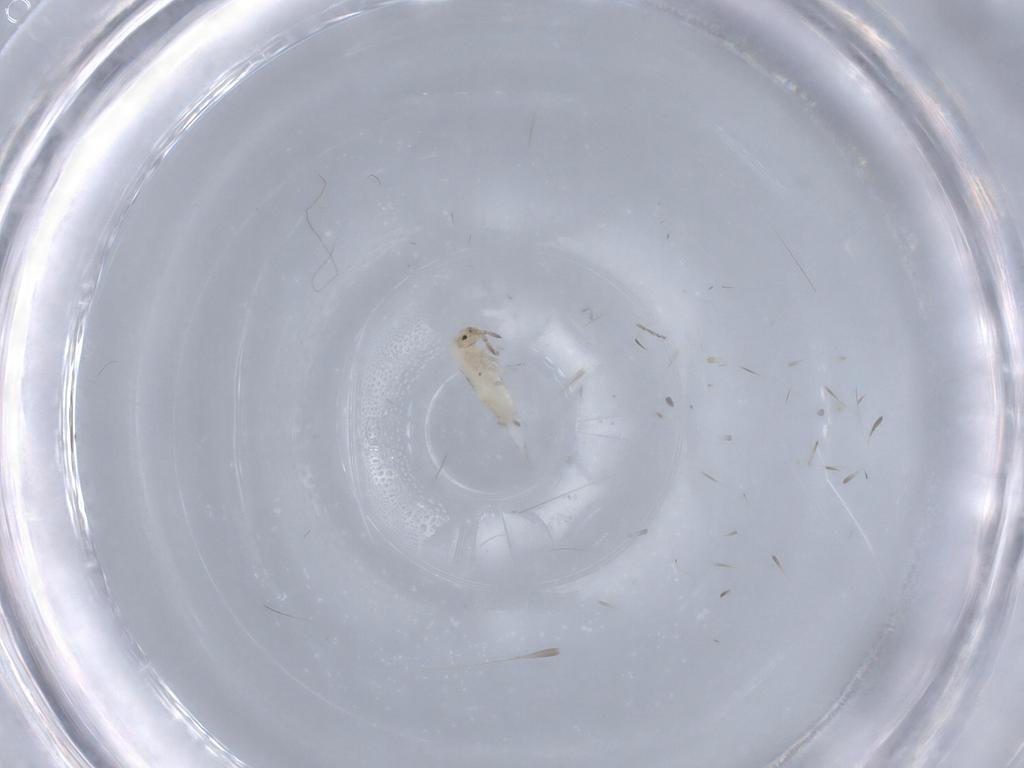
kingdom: Animalia
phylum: Arthropoda
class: Collembola
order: Entomobryomorpha
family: Entomobryidae
